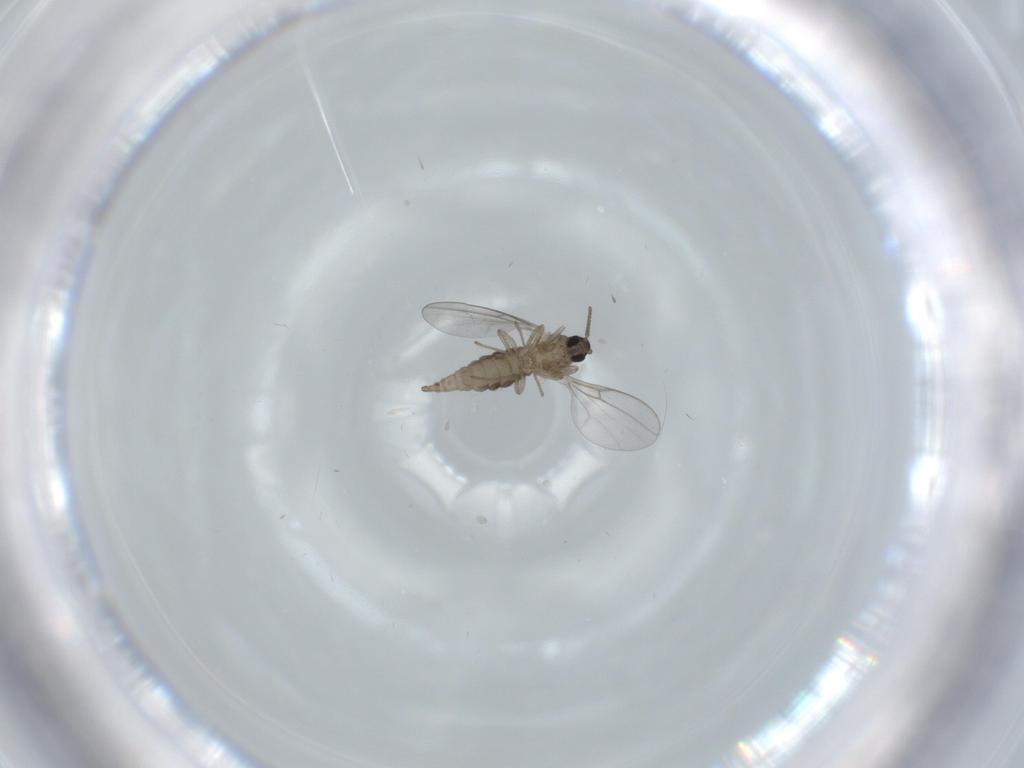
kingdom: Animalia
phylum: Arthropoda
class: Insecta
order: Diptera
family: Cecidomyiidae
